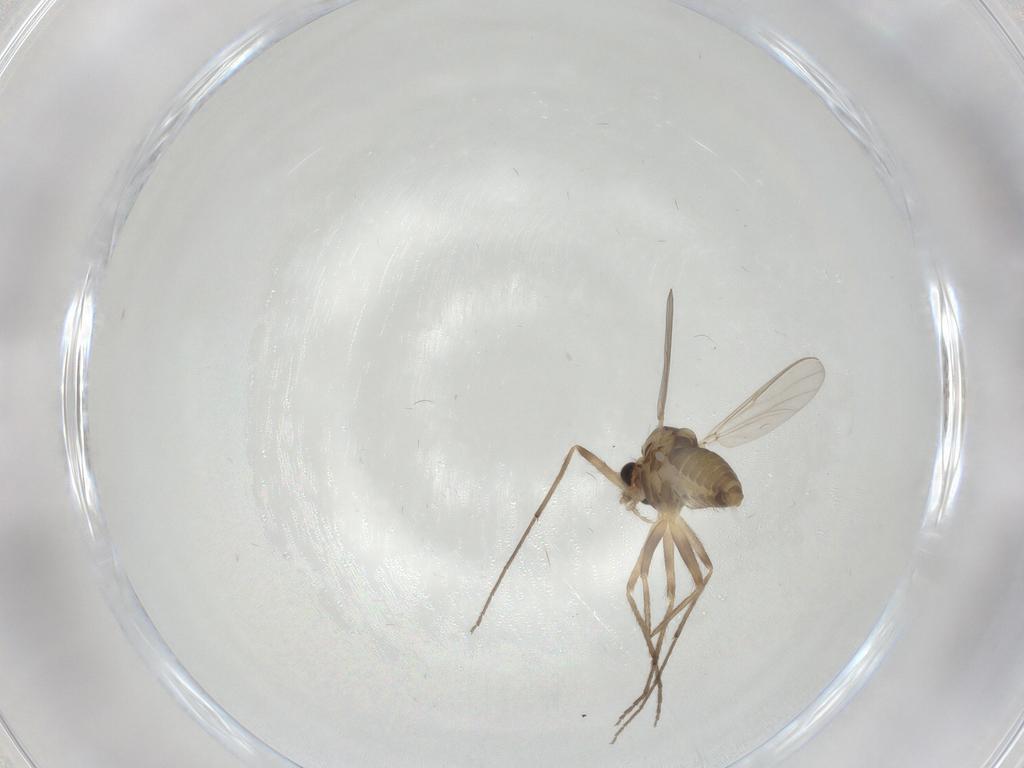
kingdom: Animalia
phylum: Arthropoda
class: Insecta
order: Diptera
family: Chironomidae
